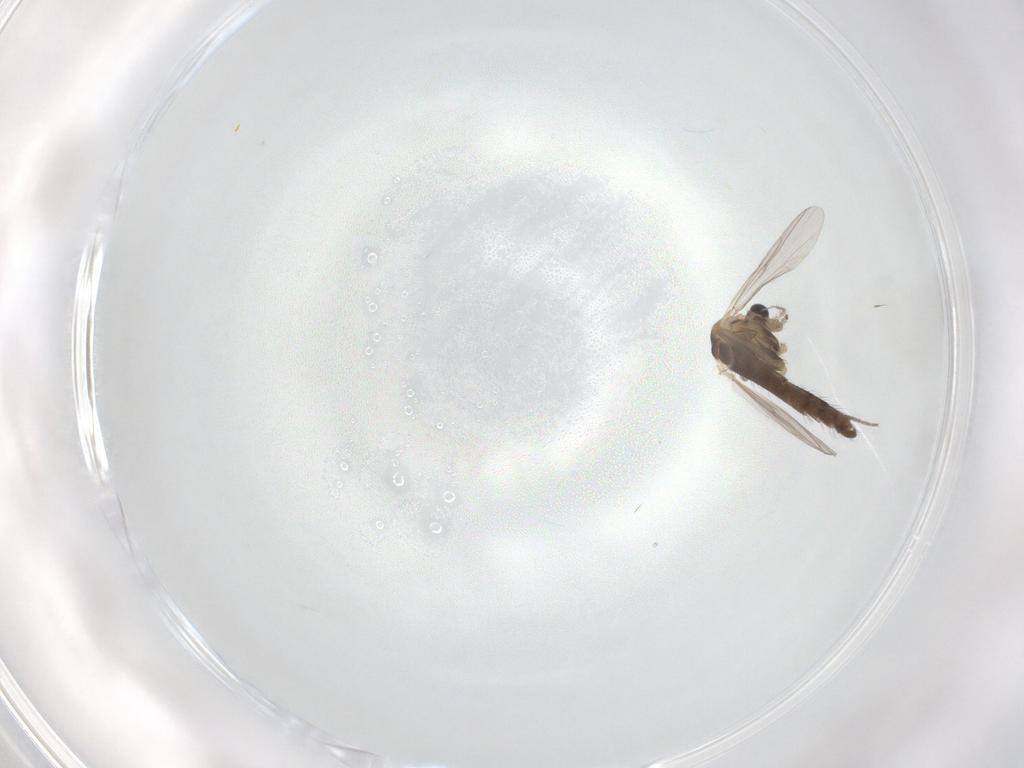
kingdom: Animalia
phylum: Arthropoda
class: Insecta
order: Diptera
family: Chironomidae
